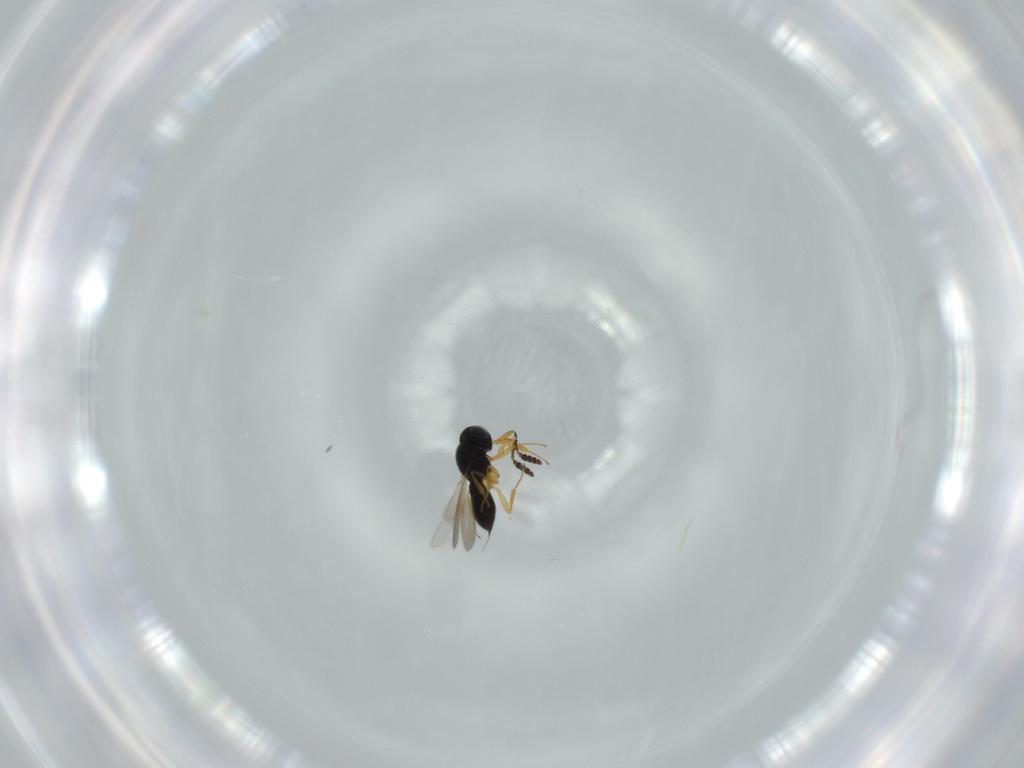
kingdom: Animalia
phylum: Arthropoda
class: Insecta
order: Hymenoptera
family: Scelionidae
